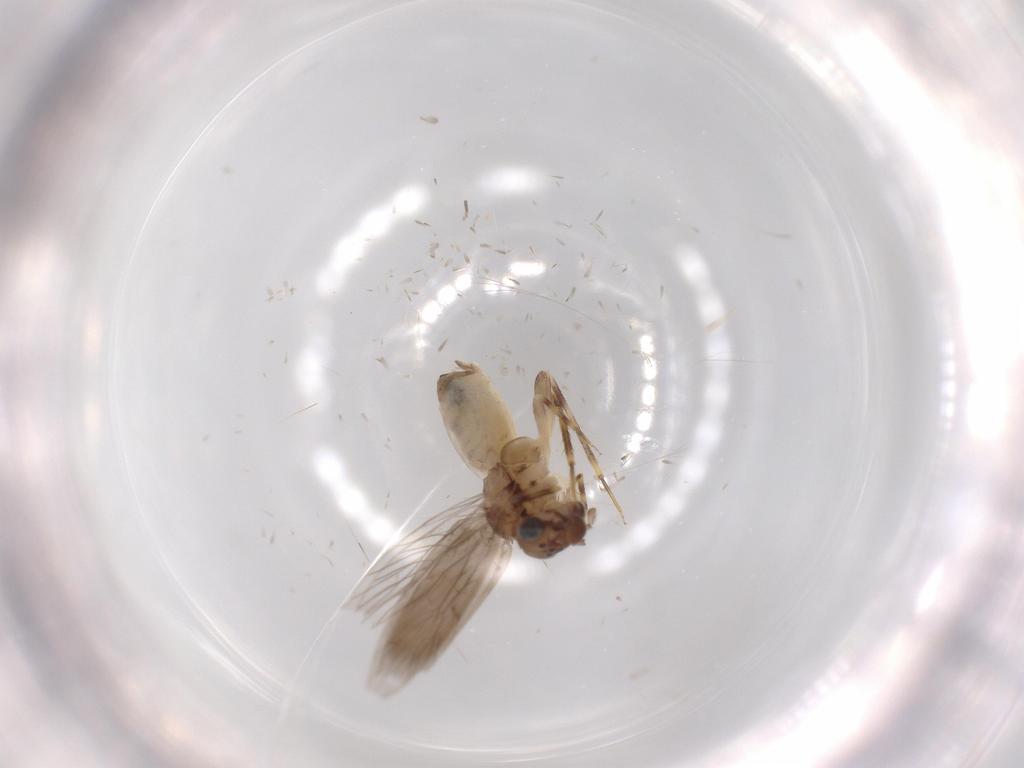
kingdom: Animalia
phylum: Arthropoda
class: Insecta
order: Psocodea
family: Lepidopsocidae
